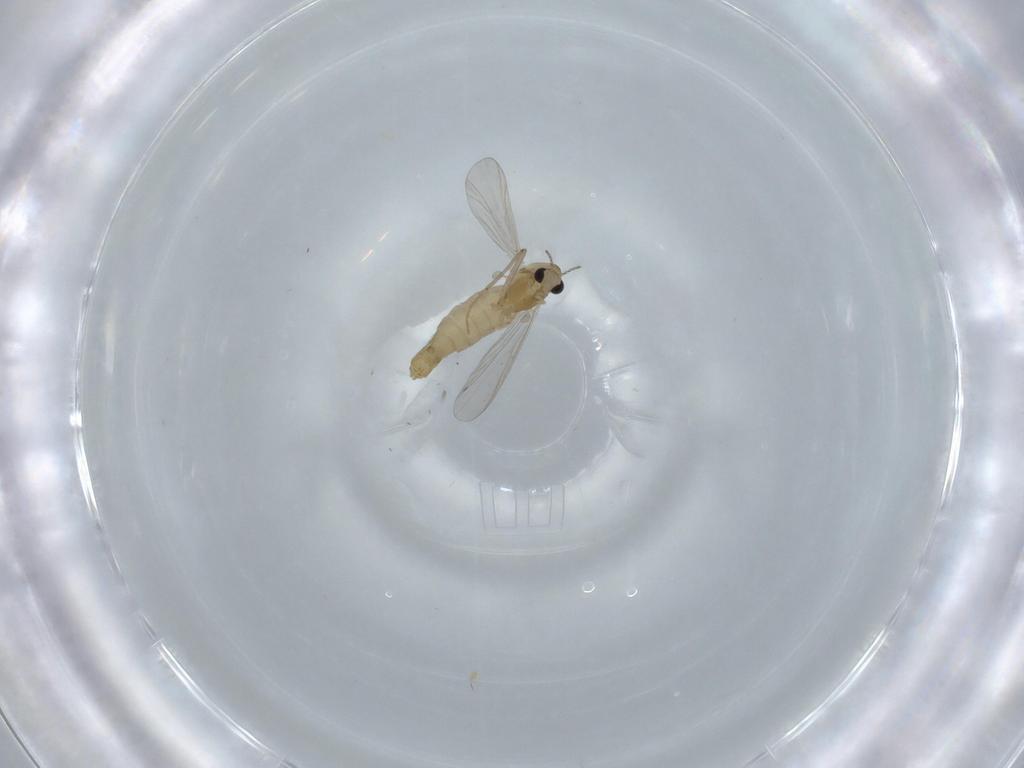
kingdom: Animalia
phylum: Arthropoda
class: Insecta
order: Diptera
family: Chironomidae
